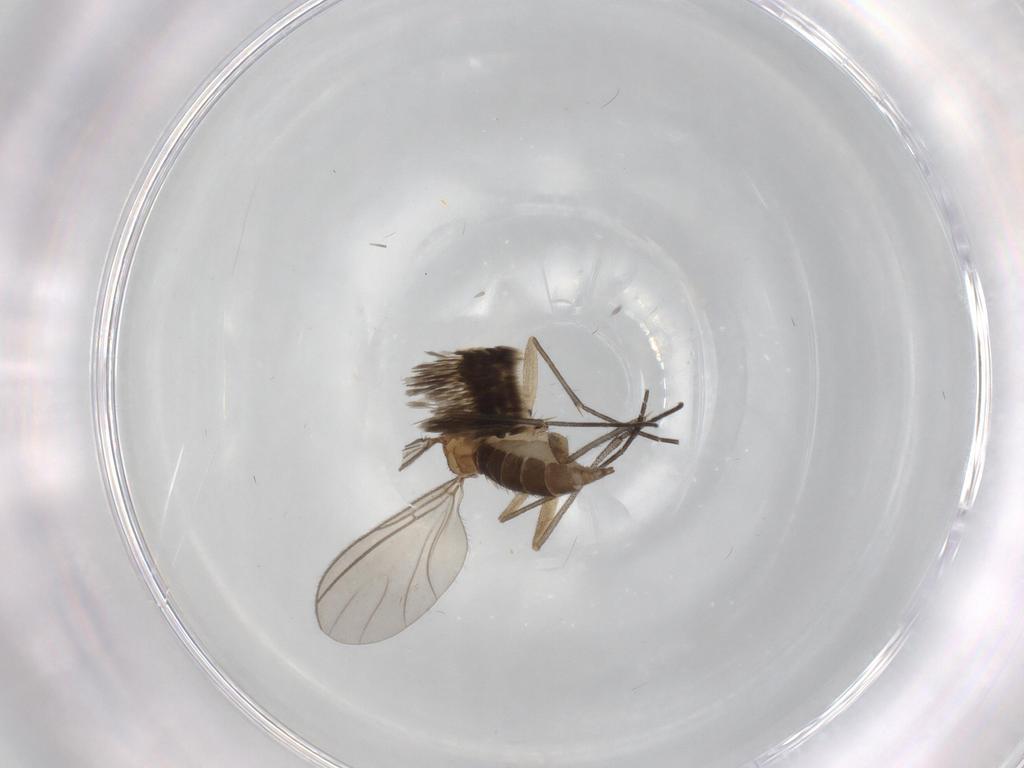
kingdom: Animalia
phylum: Arthropoda
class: Insecta
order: Diptera
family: Sciaridae
